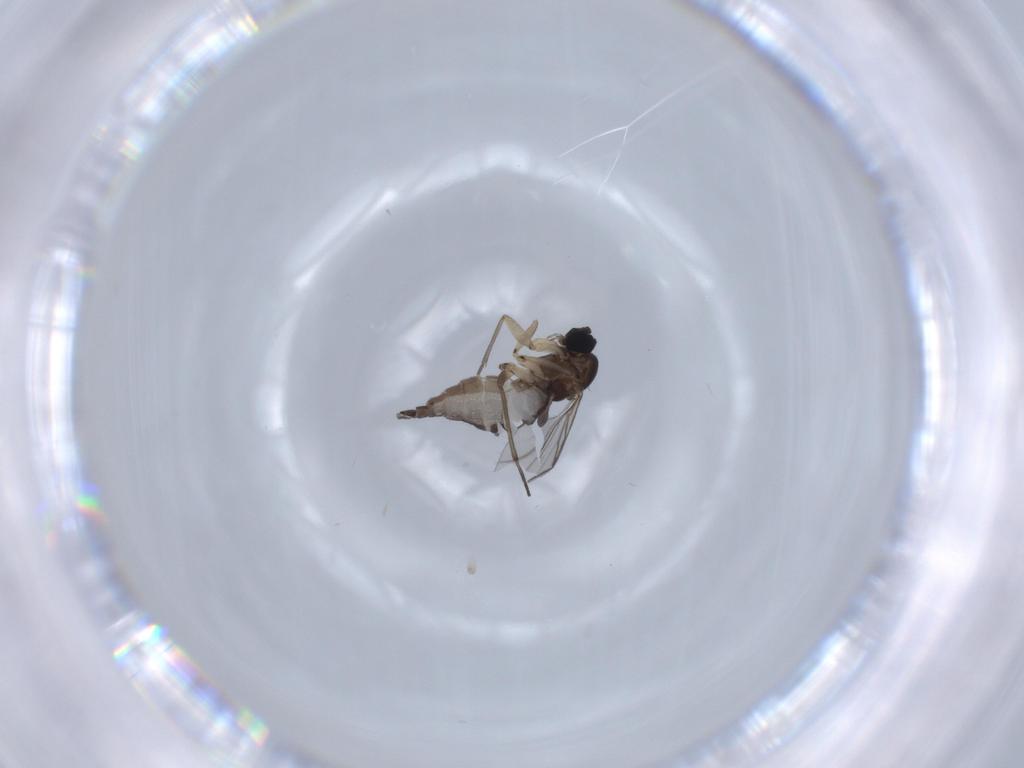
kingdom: Animalia
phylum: Arthropoda
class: Insecta
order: Diptera
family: Sciaridae
